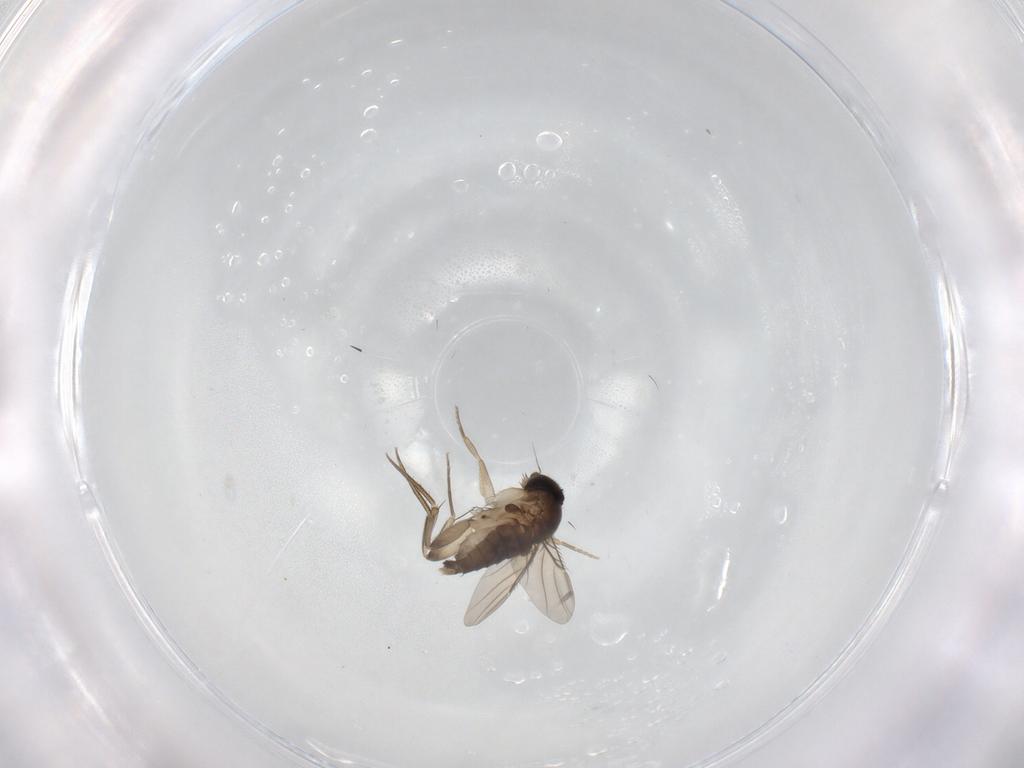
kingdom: Animalia
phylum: Arthropoda
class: Insecta
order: Diptera
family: Phoridae
